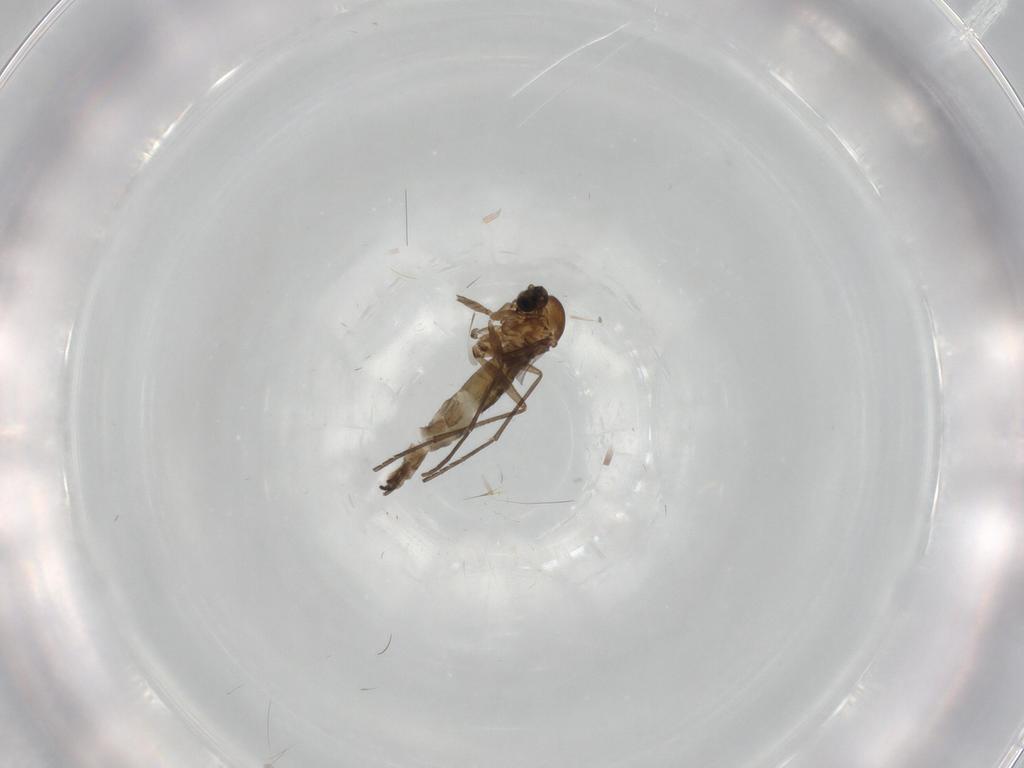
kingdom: Animalia
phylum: Arthropoda
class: Insecta
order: Diptera
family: Sciaridae
